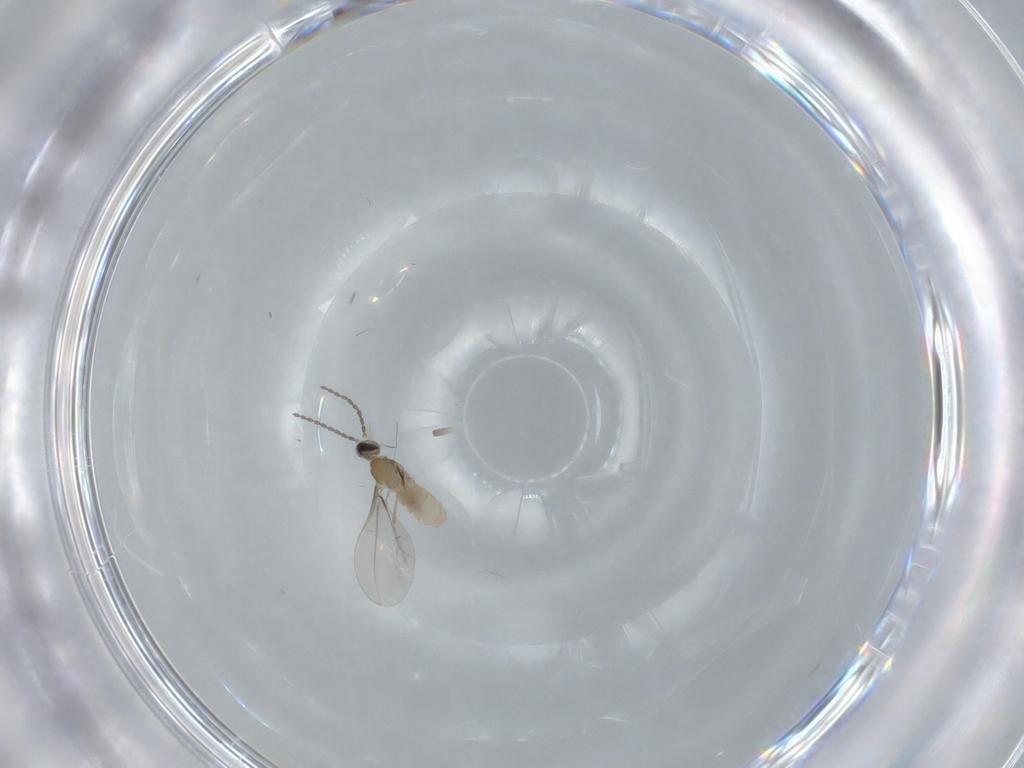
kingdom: Animalia
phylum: Arthropoda
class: Insecta
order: Diptera
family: Cecidomyiidae
